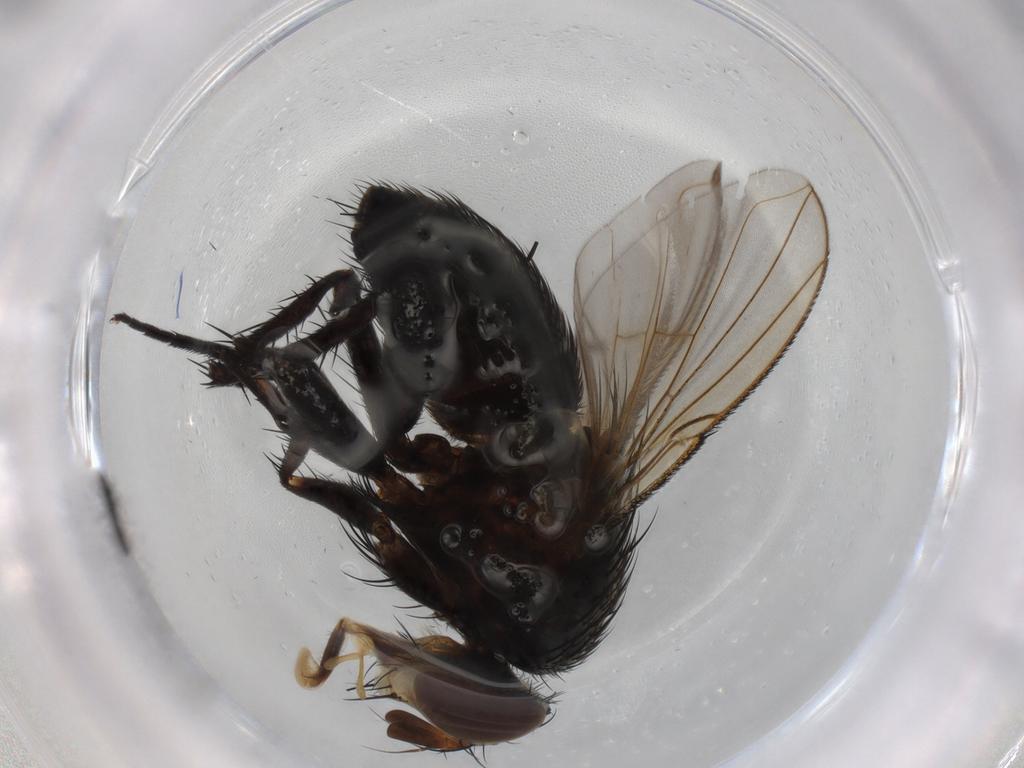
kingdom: Animalia
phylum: Arthropoda
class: Insecta
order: Diptera
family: Tachinidae
